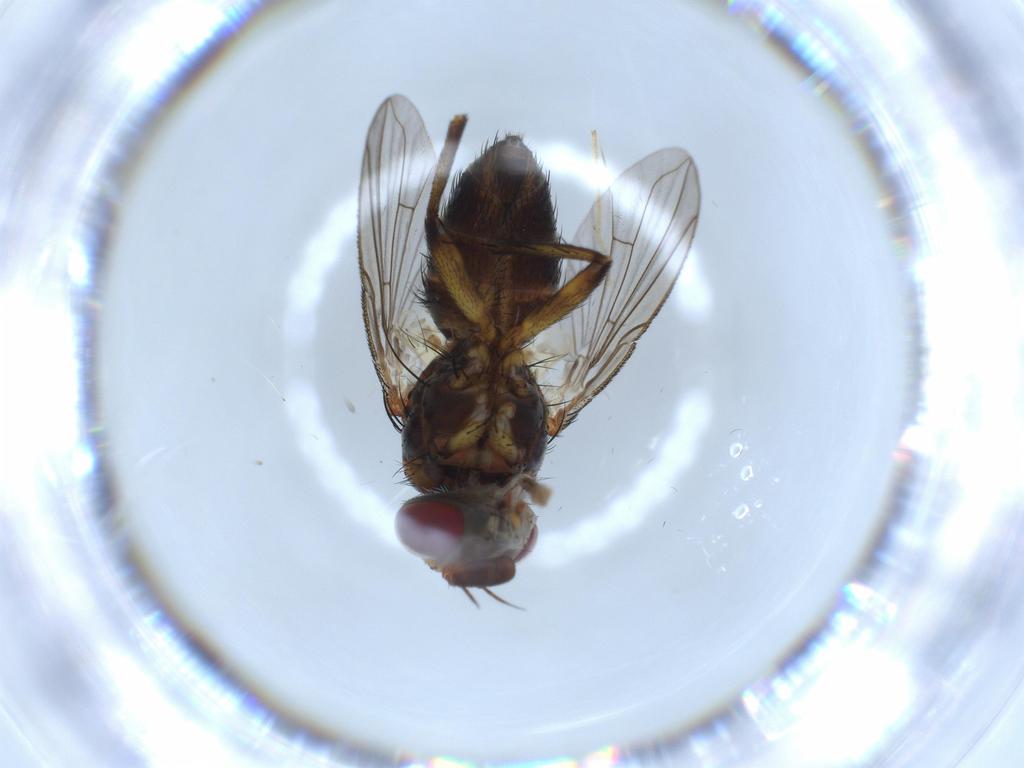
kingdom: Animalia
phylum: Arthropoda
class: Insecta
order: Diptera
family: Tachinidae
